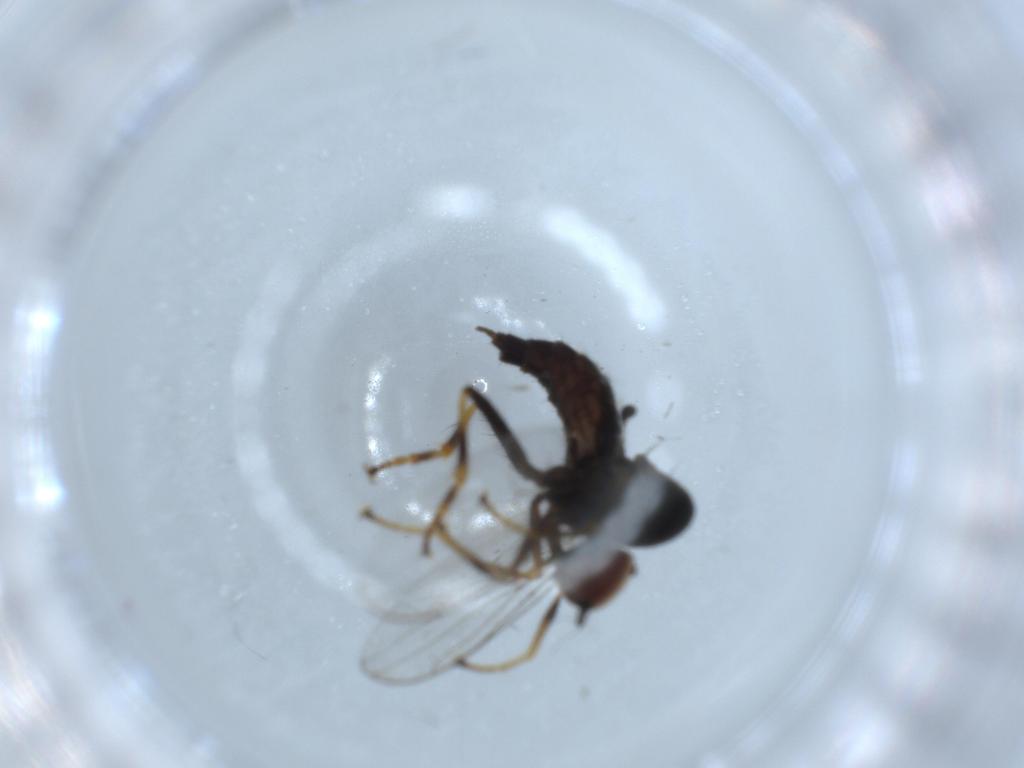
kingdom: Animalia
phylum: Arthropoda
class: Insecta
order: Diptera
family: Hybotidae
